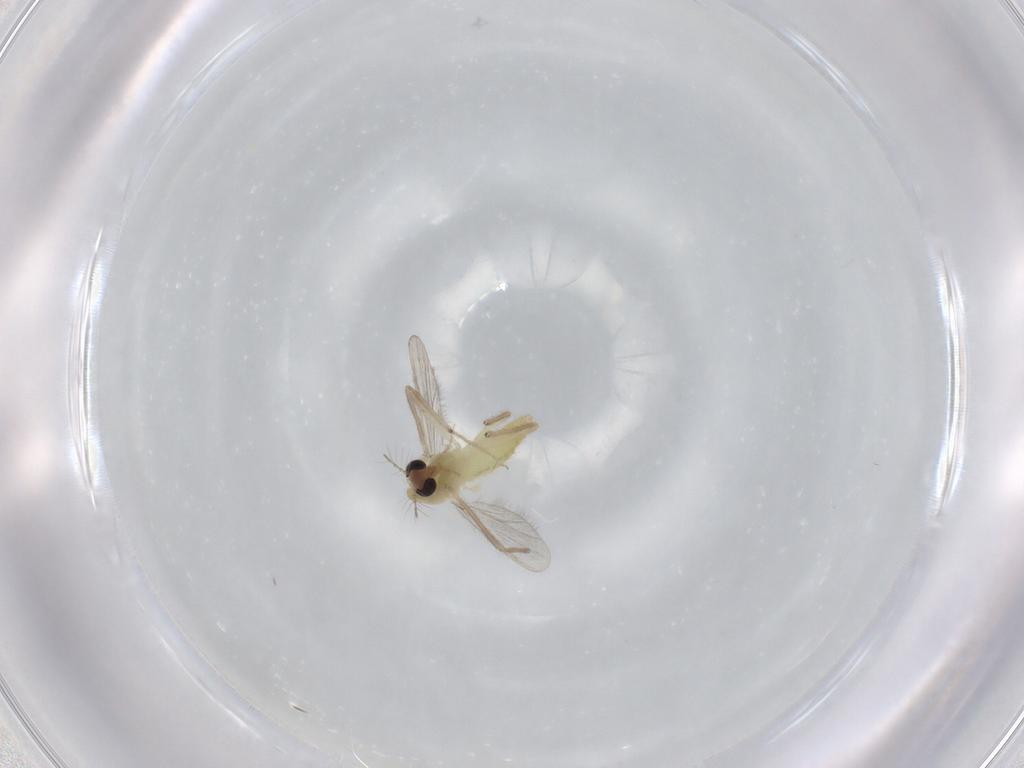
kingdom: Animalia
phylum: Arthropoda
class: Insecta
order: Diptera
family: Chironomidae
